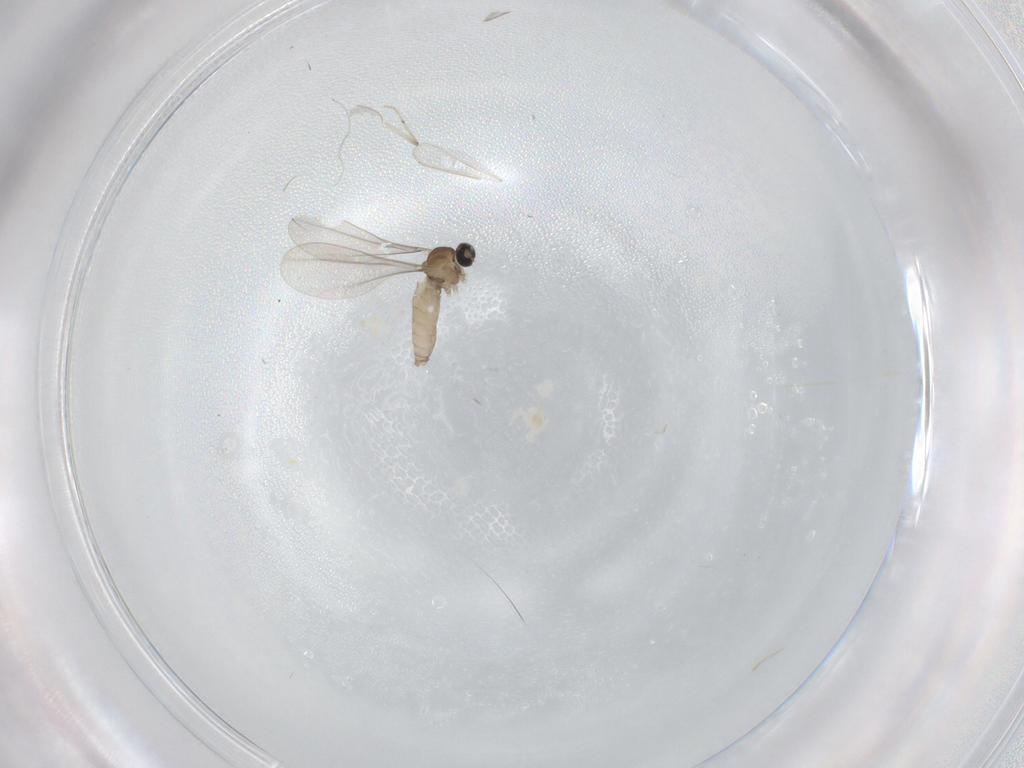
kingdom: Animalia
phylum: Arthropoda
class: Insecta
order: Diptera
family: Chironomidae
